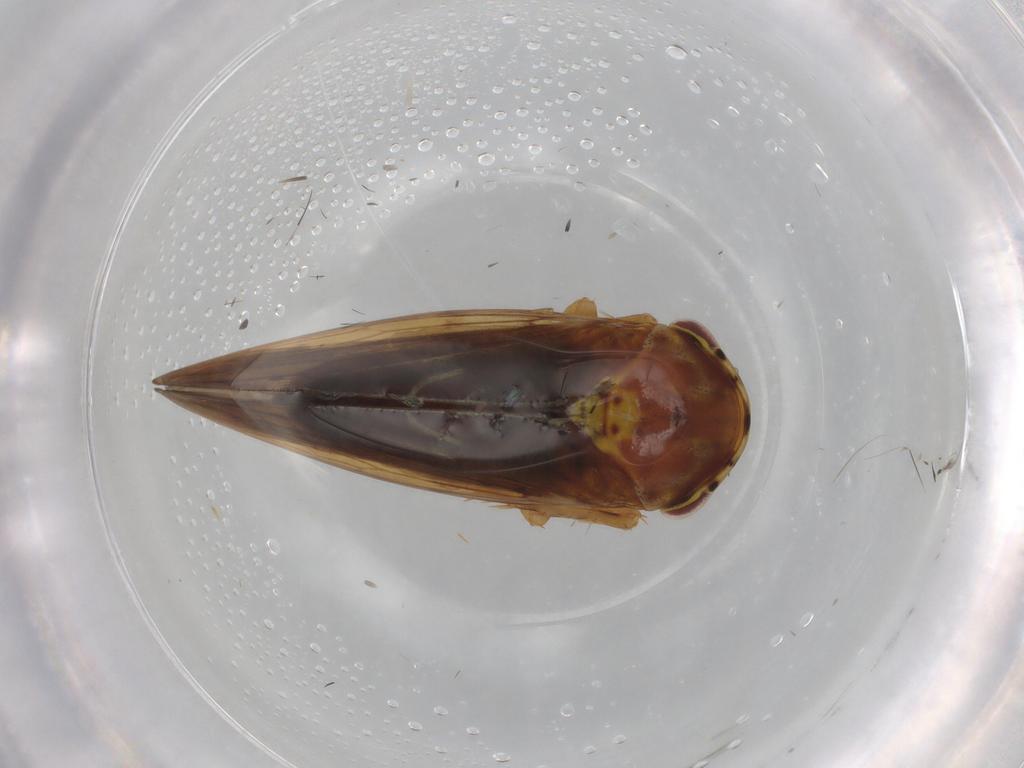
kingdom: Animalia
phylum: Arthropoda
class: Insecta
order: Hemiptera
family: Cicadellidae
